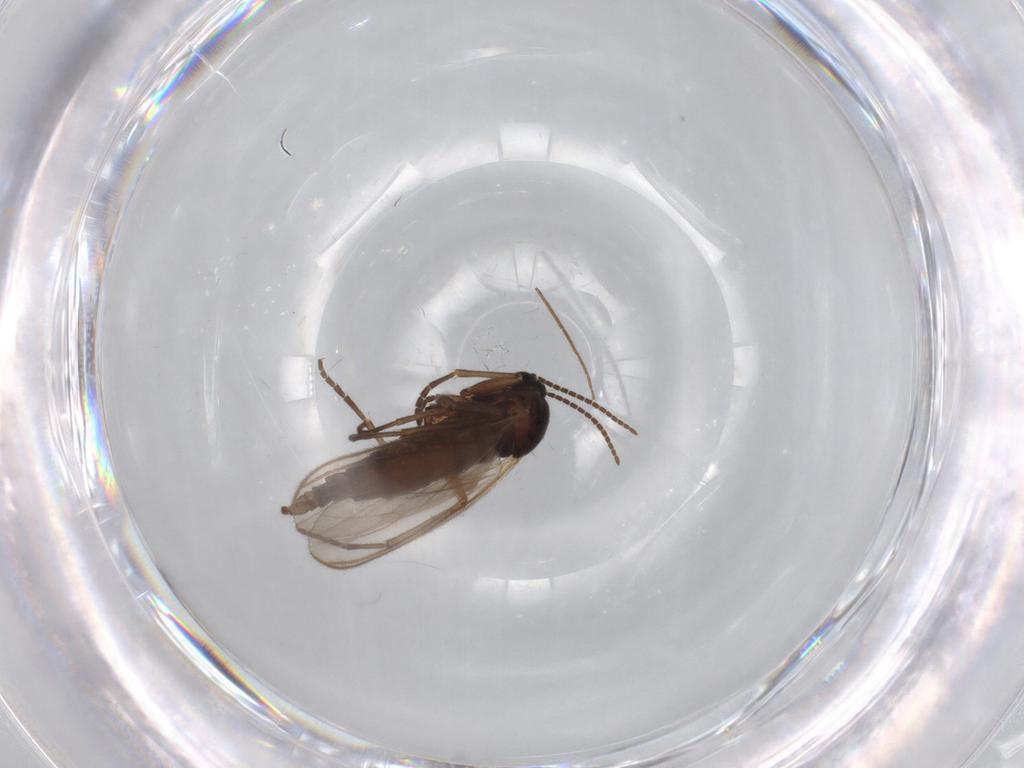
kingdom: Animalia
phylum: Arthropoda
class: Insecta
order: Diptera
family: Sciaridae
